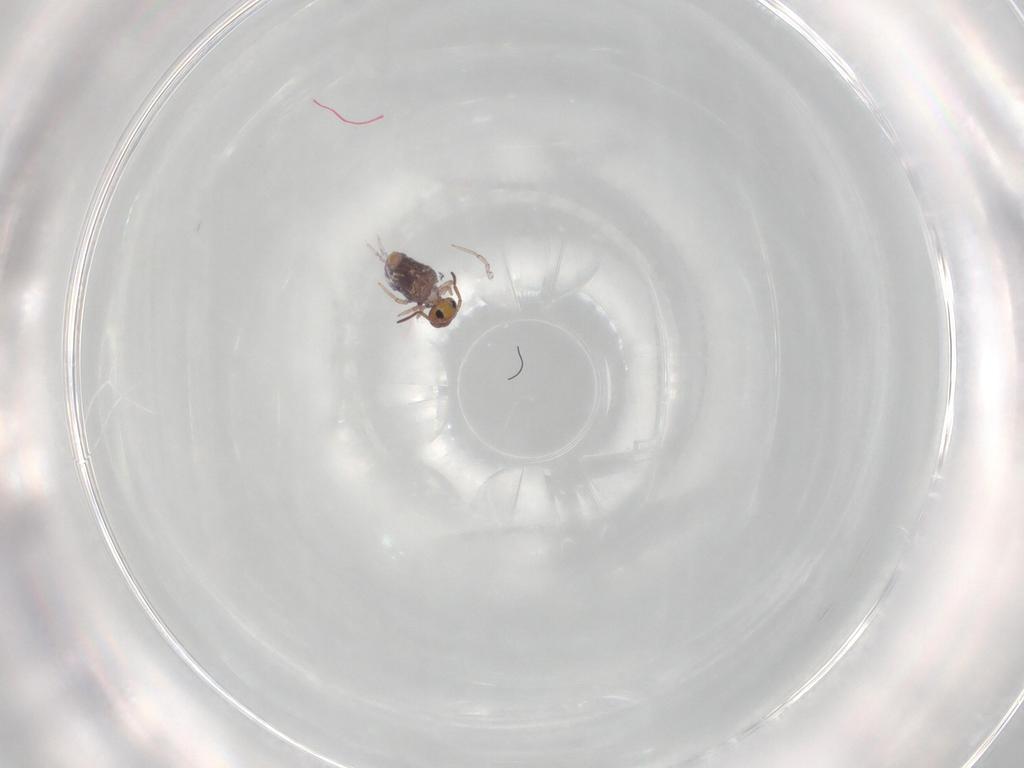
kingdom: Animalia
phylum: Arthropoda
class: Collembola
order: Symphypleona
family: Bourletiellidae
